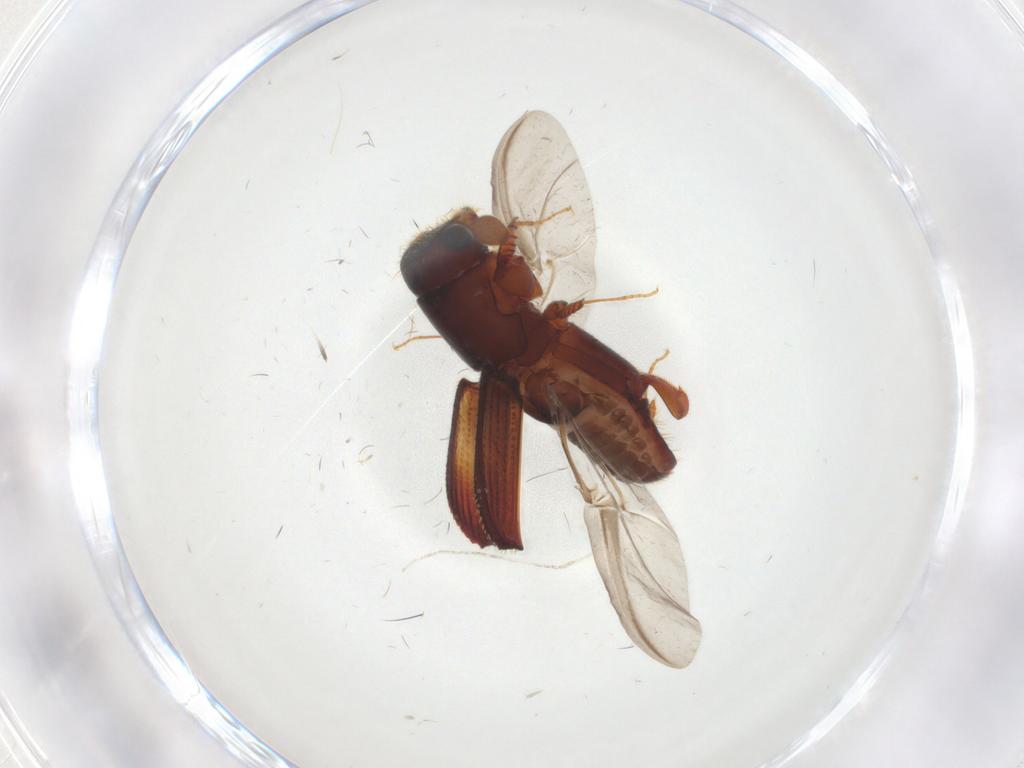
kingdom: Animalia
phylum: Arthropoda
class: Insecta
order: Coleoptera
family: Curculionidae
